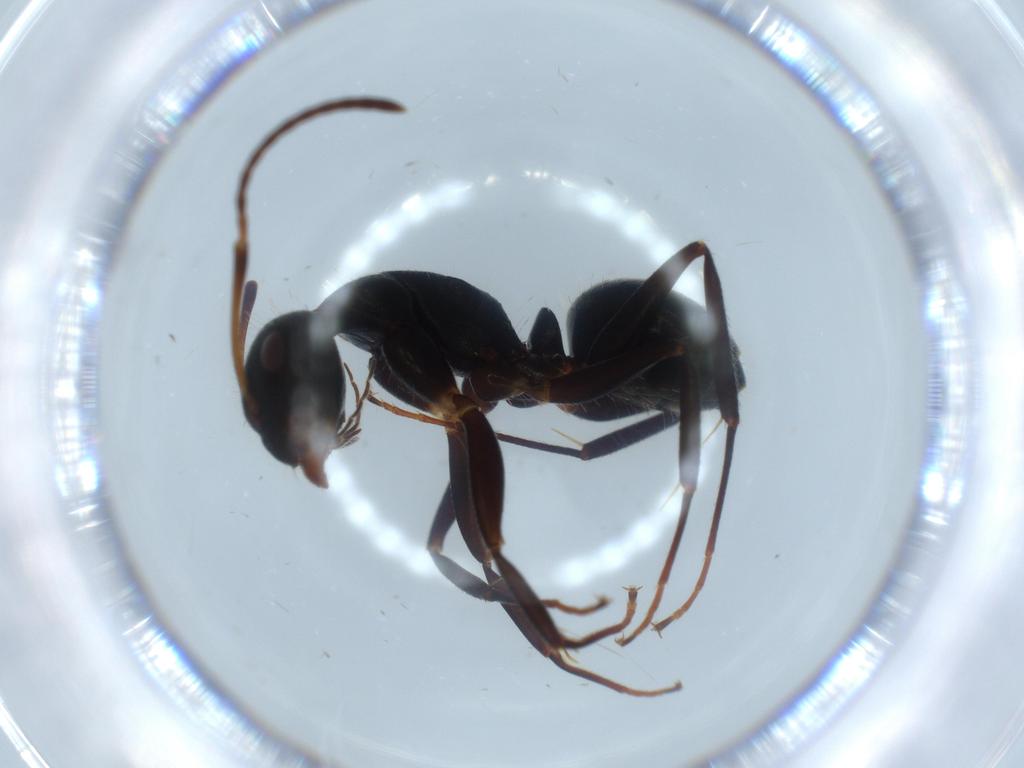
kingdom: Animalia
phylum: Arthropoda
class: Insecta
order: Hymenoptera
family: Formicidae
